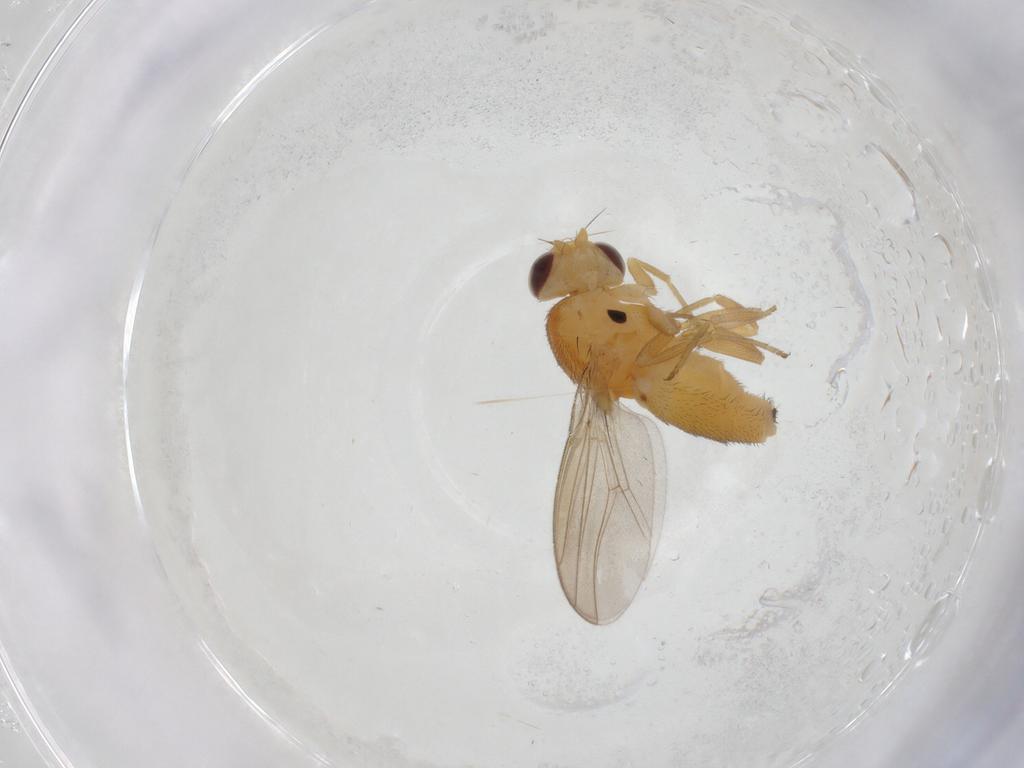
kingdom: Animalia
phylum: Arthropoda
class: Insecta
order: Diptera
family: Chloropidae
